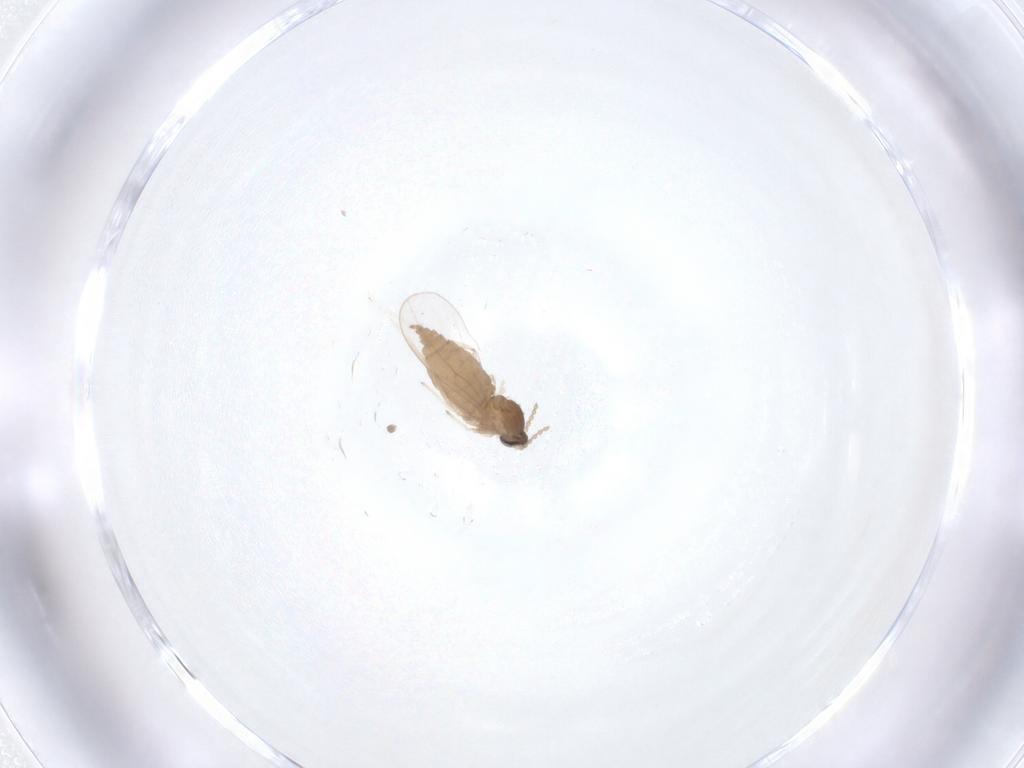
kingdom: Animalia
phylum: Arthropoda
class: Insecta
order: Diptera
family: Cecidomyiidae
